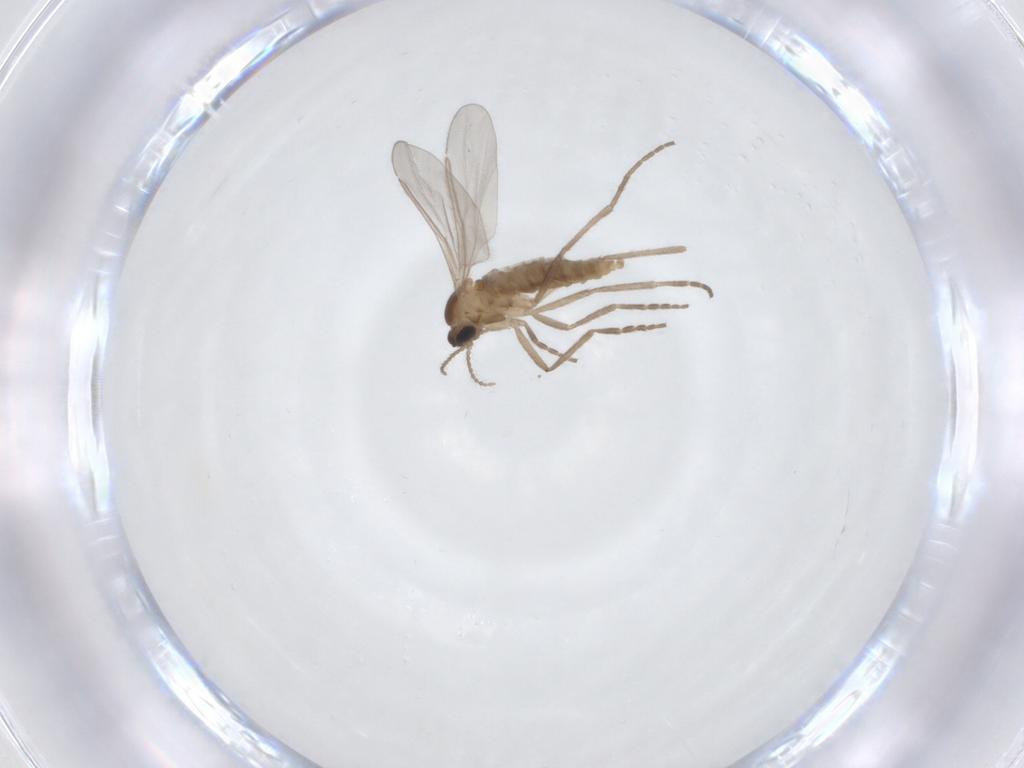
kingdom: Animalia
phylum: Arthropoda
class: Insecta
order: Diptera
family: Cecidomyiidae
